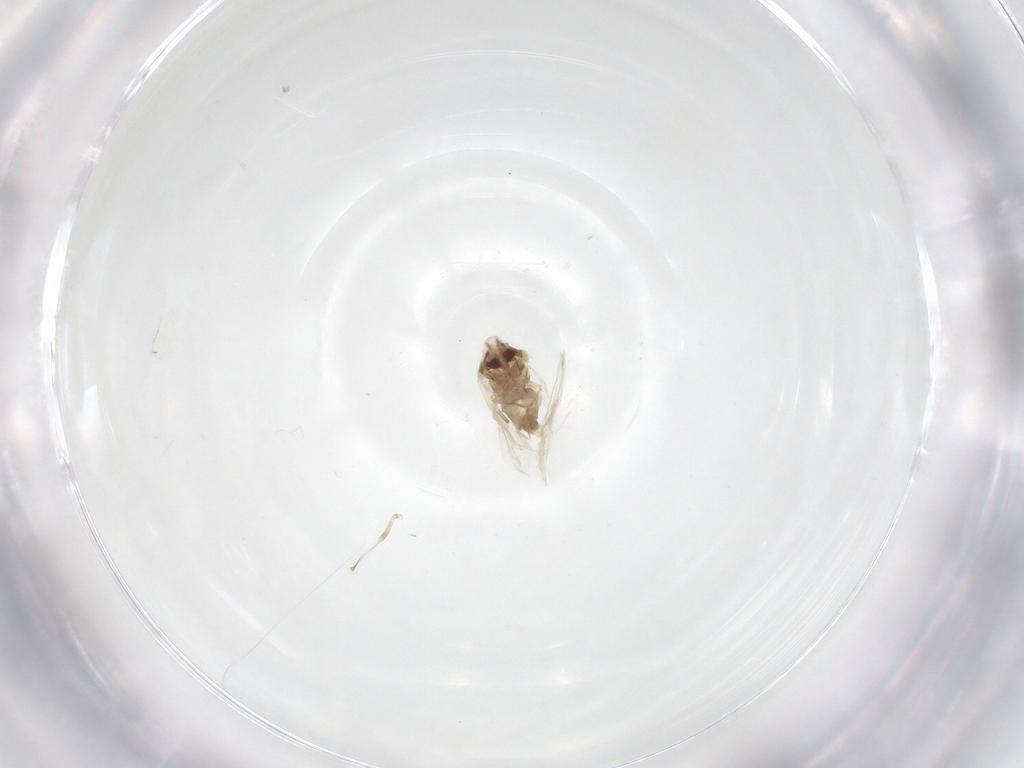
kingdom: Animalia
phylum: Arthropoda
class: Insecta
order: Hemiptera
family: Aleyrodidae
